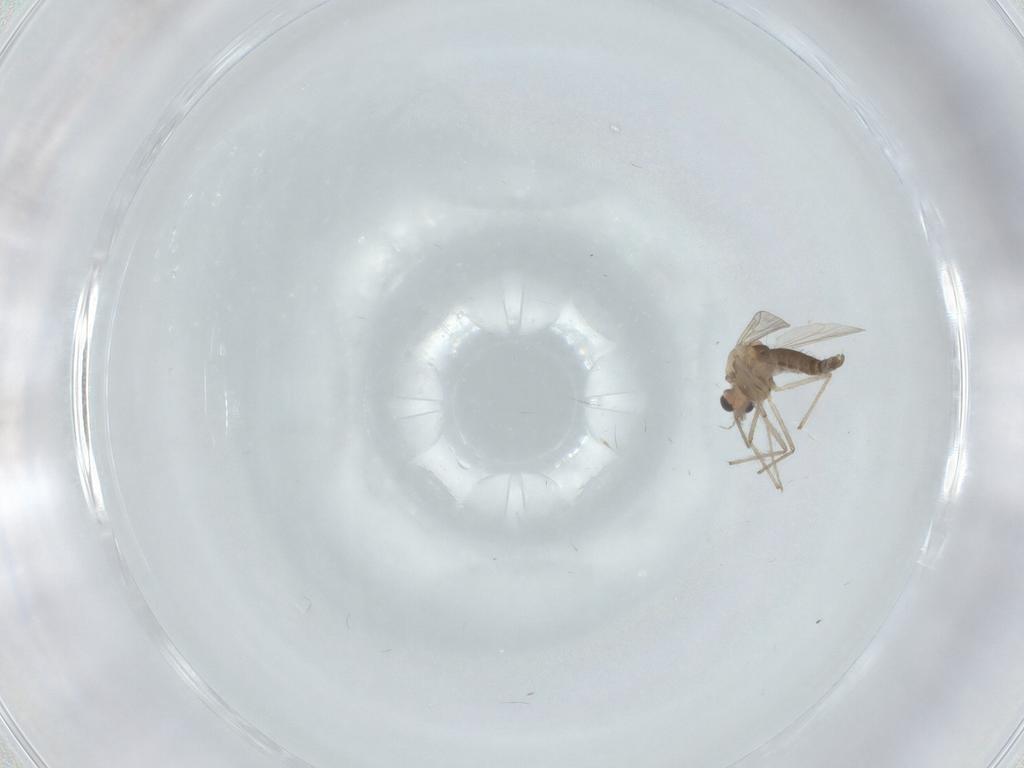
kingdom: Animalia
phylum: Arthropoda
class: Insecta
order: Diptera
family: Chironomidae
